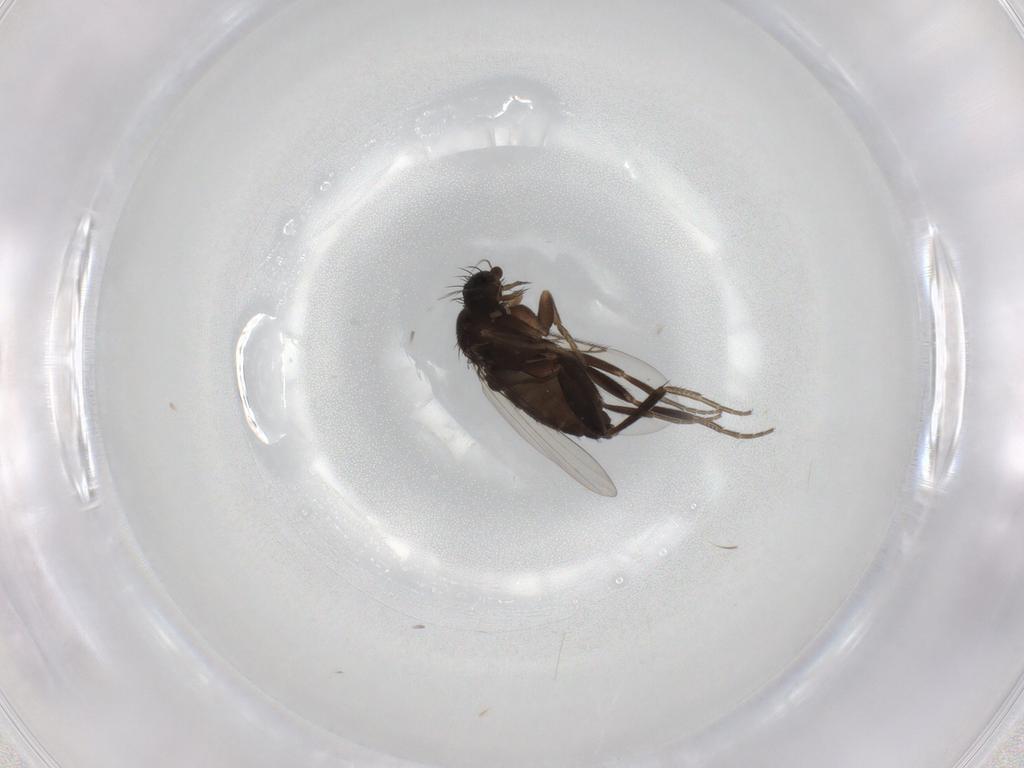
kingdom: Animalia
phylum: Arthropoda
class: Insecta
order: Diptera
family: Phoridae
